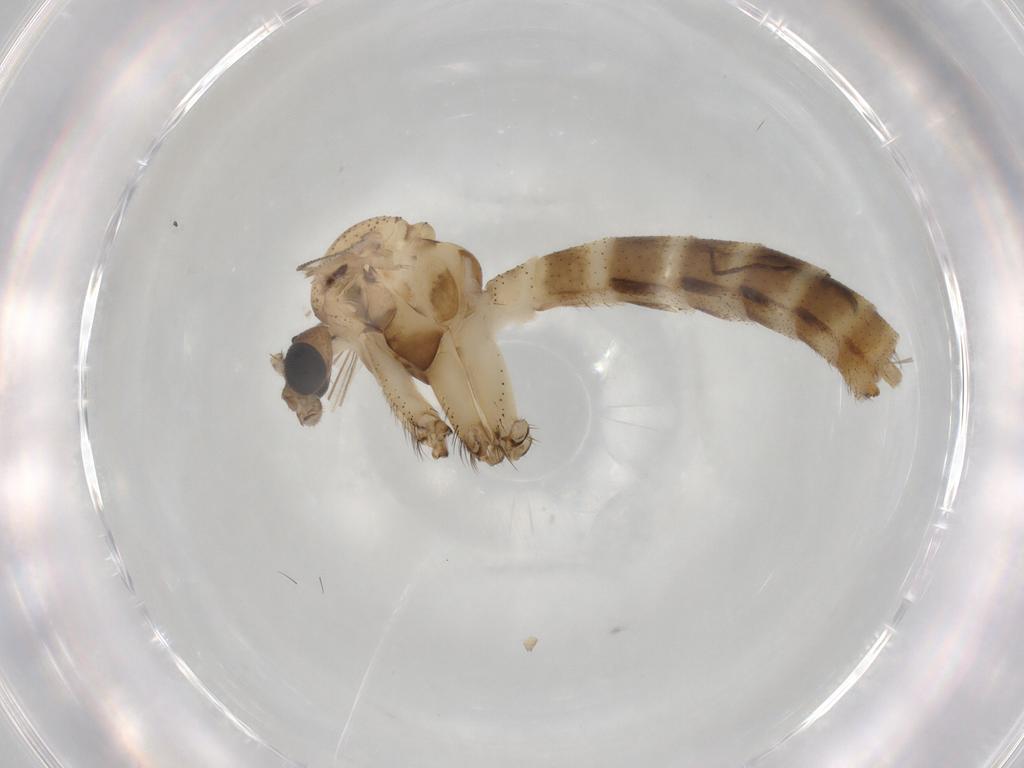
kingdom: Animalia
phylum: Arthropoda
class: Insecta
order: Diptera
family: Mycetophilidae
